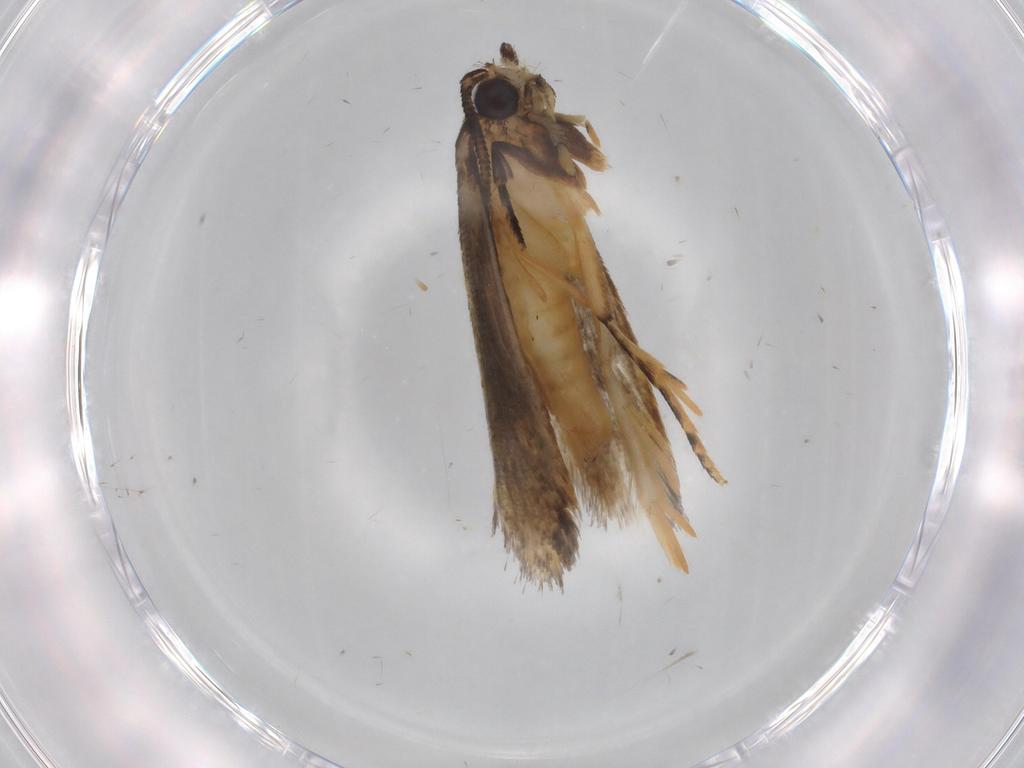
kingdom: Animalia
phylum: Arthropoda
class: Insecta
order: Lepidoptera
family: Tineidae
